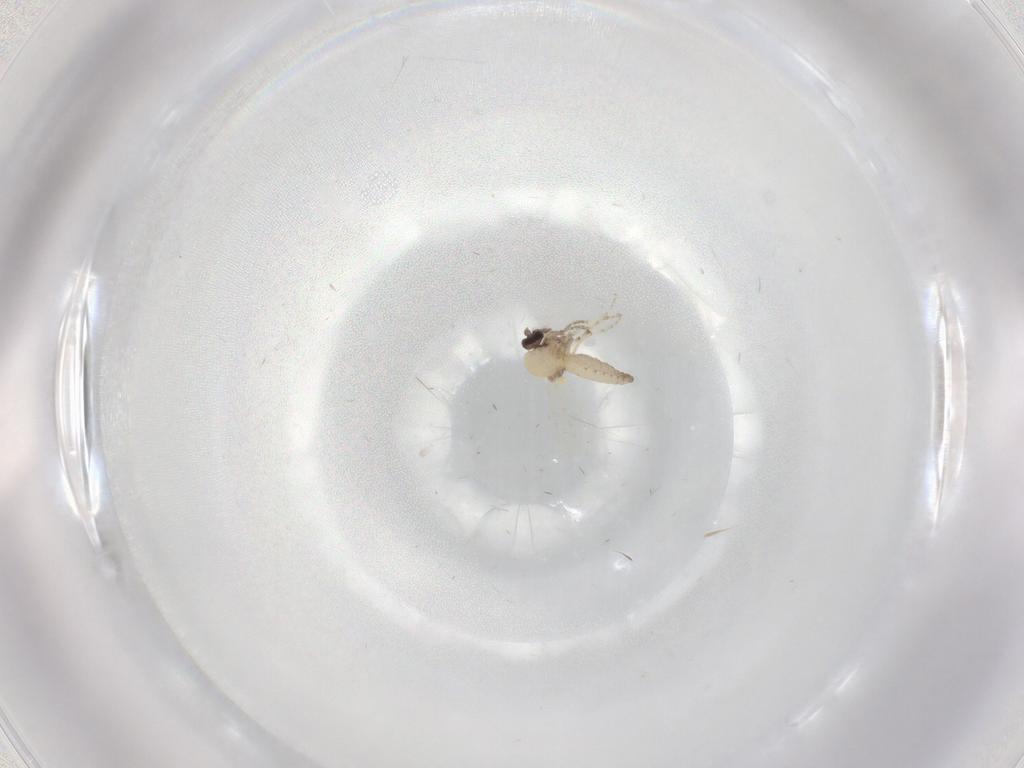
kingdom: Animalia
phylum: Arthropoda
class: Insecta
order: Diptera
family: Ceratopogonidae
